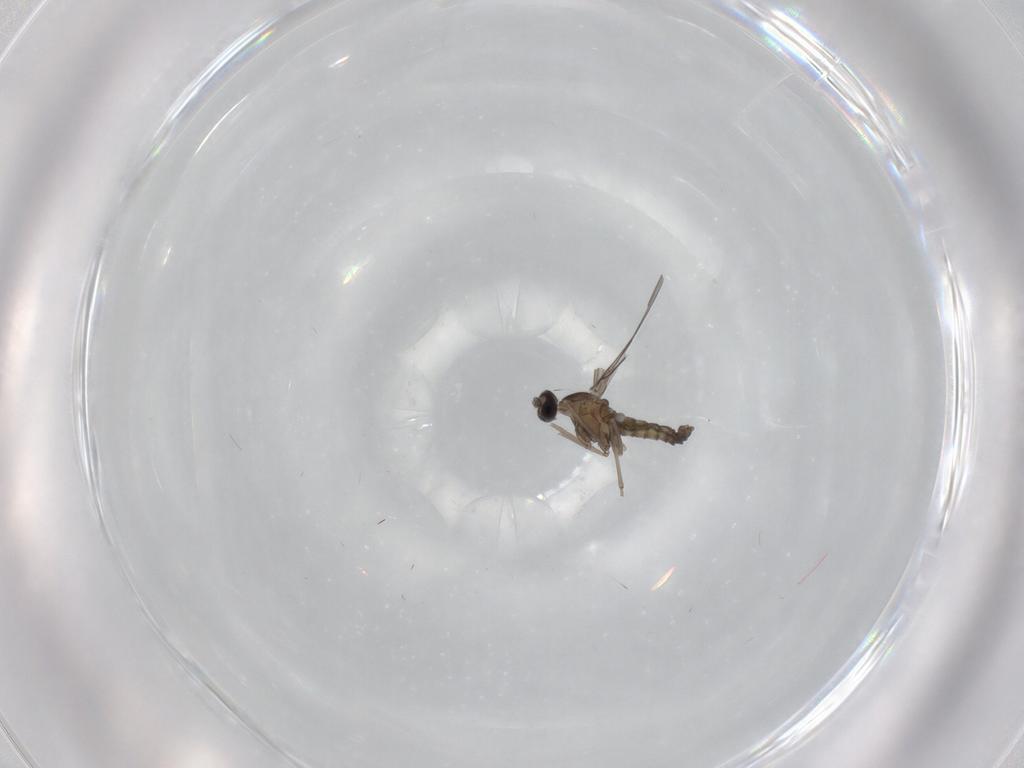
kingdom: Animalia
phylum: Arthropoda
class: Insecta
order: Diptera
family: Cecidomyiidae
